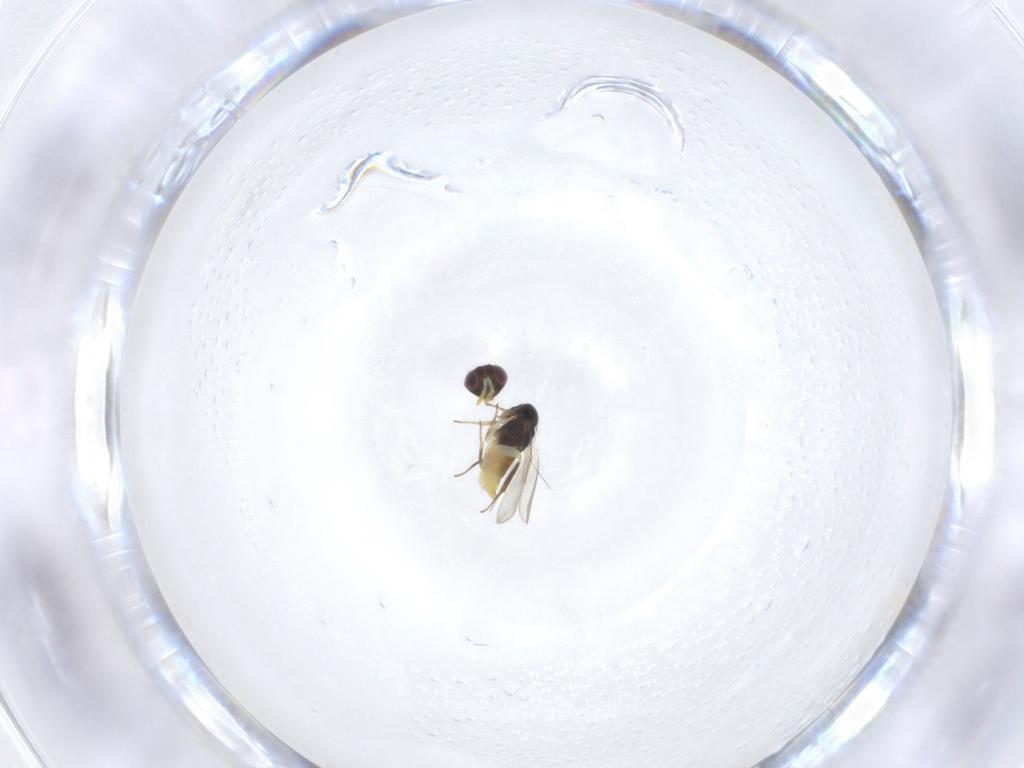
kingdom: Animalia
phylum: Arthropoda
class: Insecta
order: Hymenoptera
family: Aphelinidae
